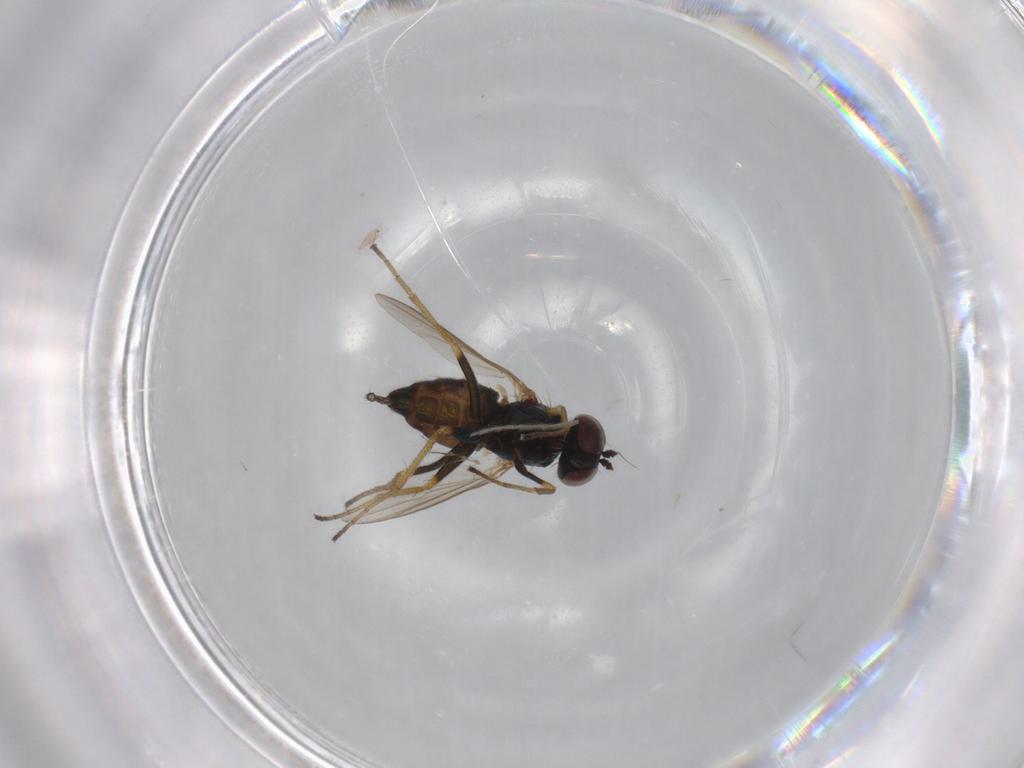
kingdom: Animalia
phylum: Arthropoda
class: Insecta
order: Diptera
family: Dolichopodidae
